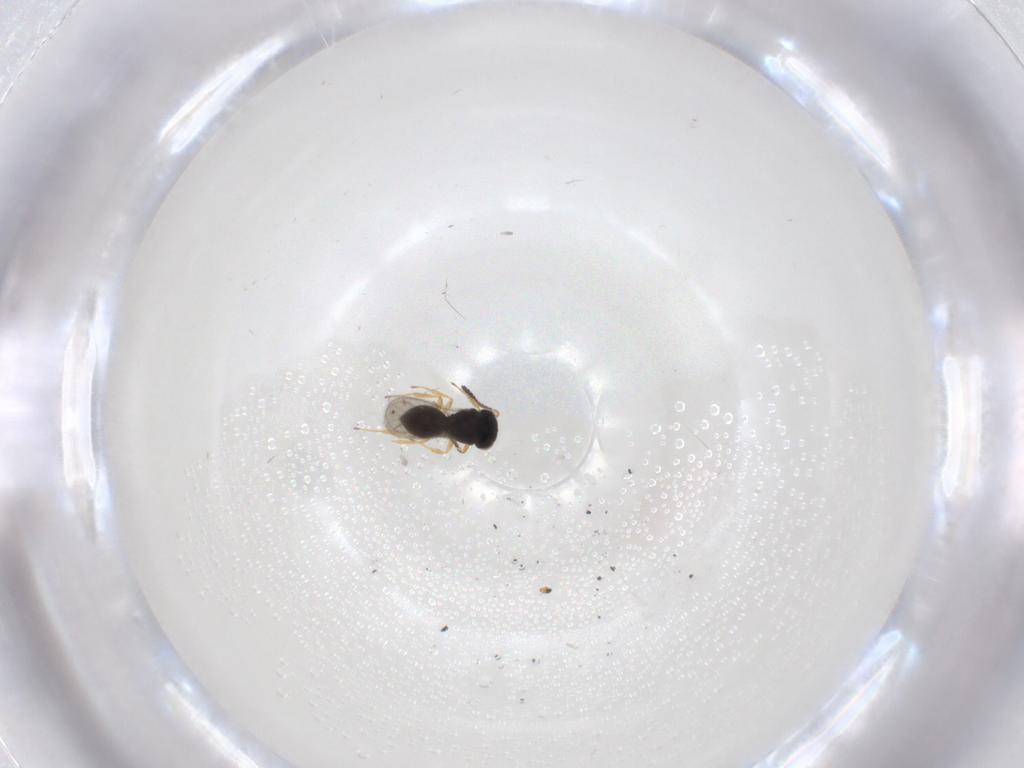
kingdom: Animalia
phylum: Arthropoda
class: Insecta
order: Hymenoptera
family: Scelionidae
